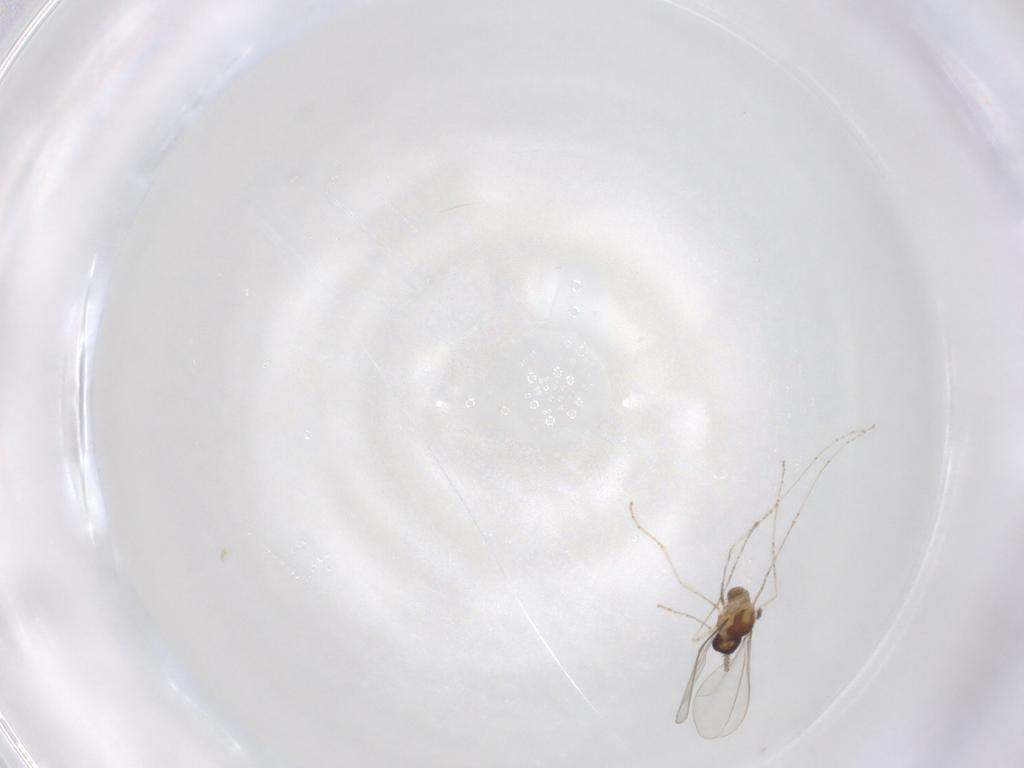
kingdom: Animalia
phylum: Arthropoda
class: Insecta
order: Diptera
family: Cecidomyiidae
